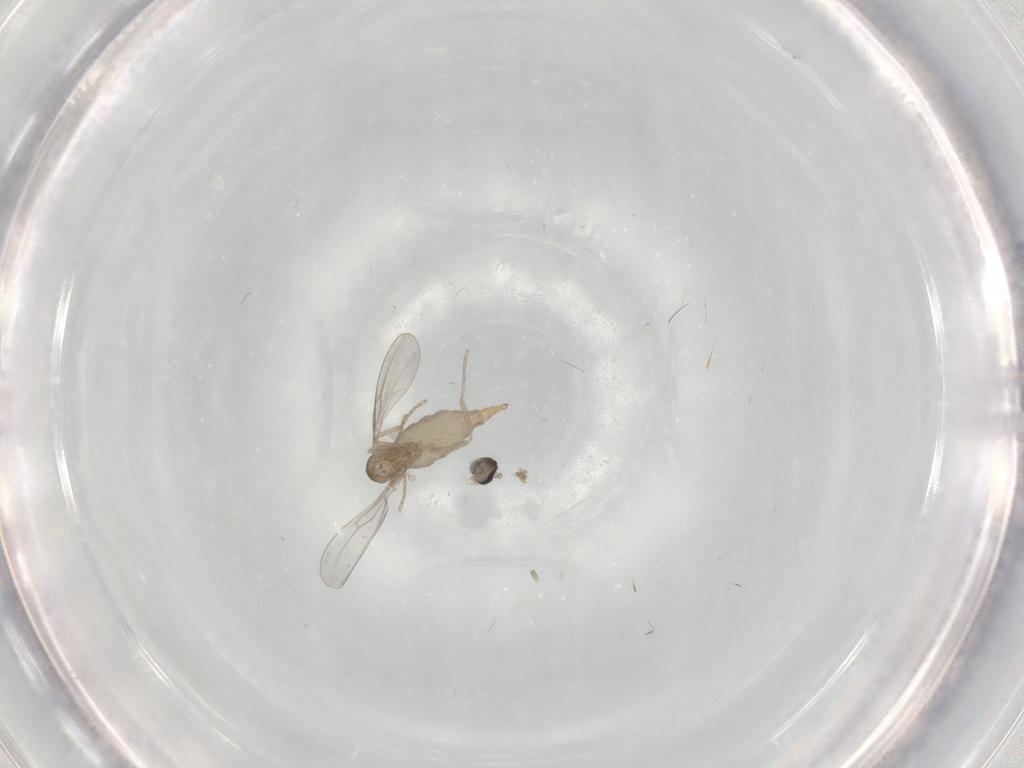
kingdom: Animalia
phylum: Arthropoda
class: Insecta
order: Diptera
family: Cecidomyiidae
